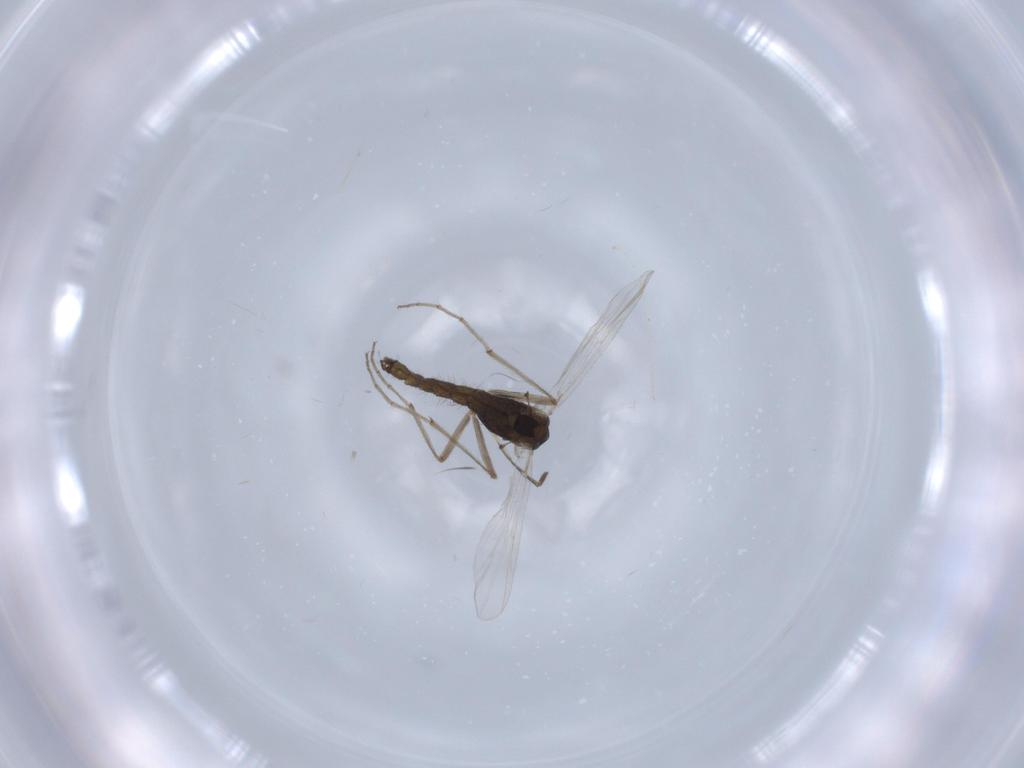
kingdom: Animalia
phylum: Arthropoda
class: Insecta
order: Diptera
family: Chironomidae
